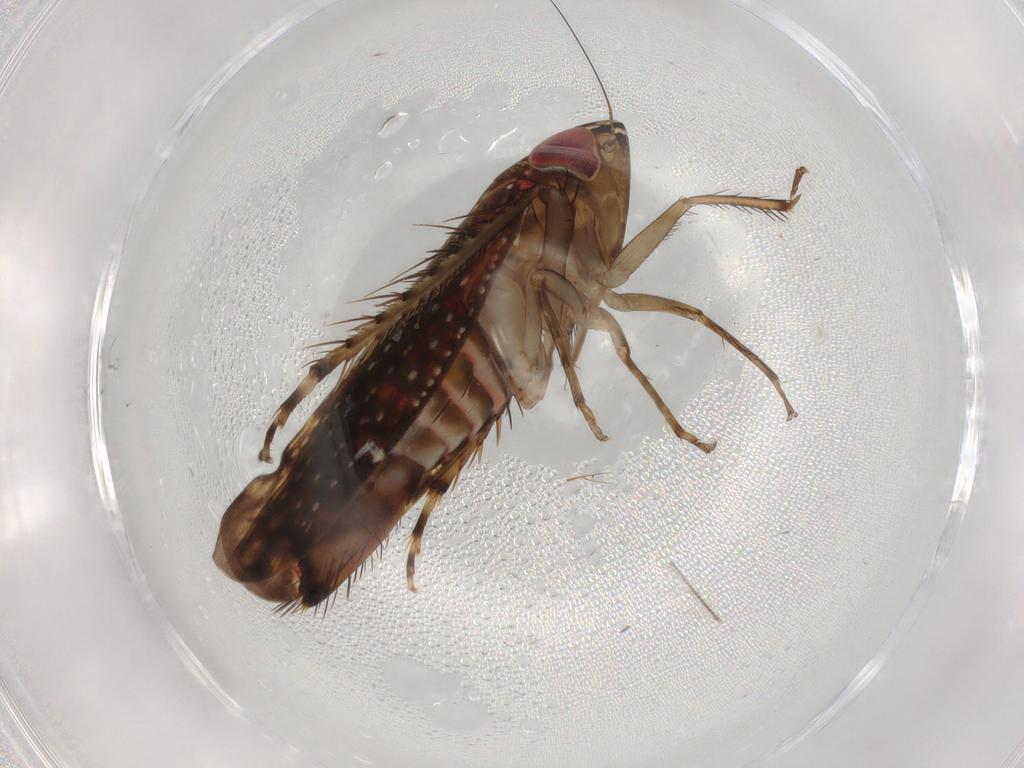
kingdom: Animalia
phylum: Arthropoda
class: Insecta
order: Hemiptera
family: Cicadellidae
